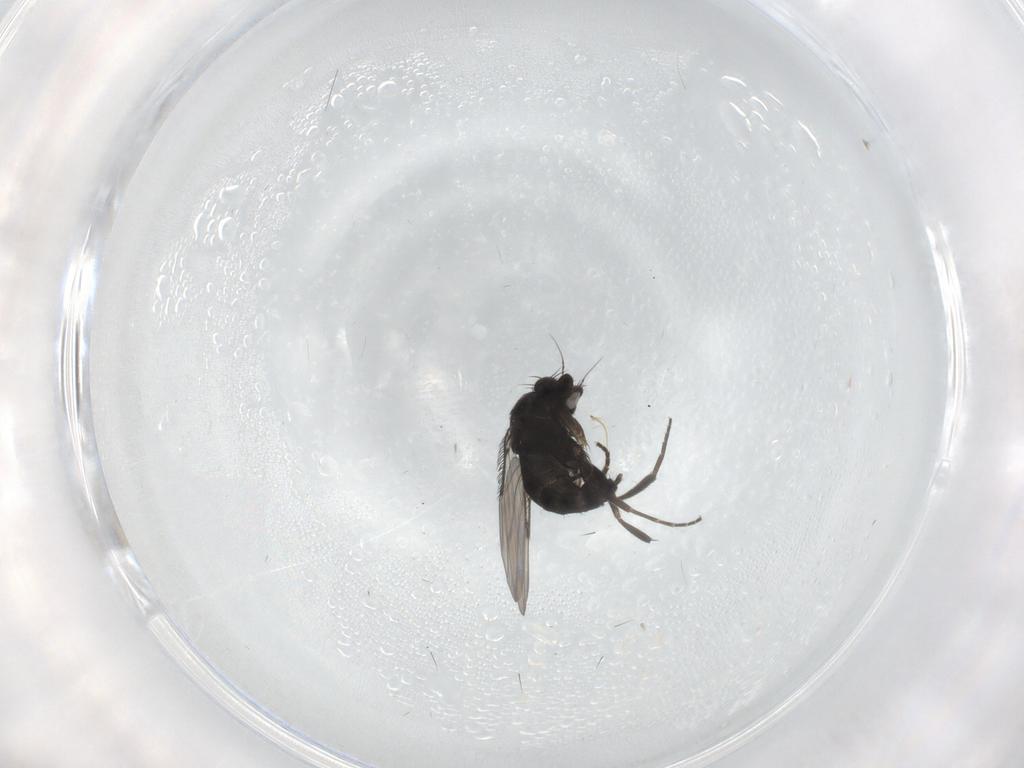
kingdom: Animalia
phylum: Arthropoda
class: Insecta
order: Diptera
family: Phoridae
